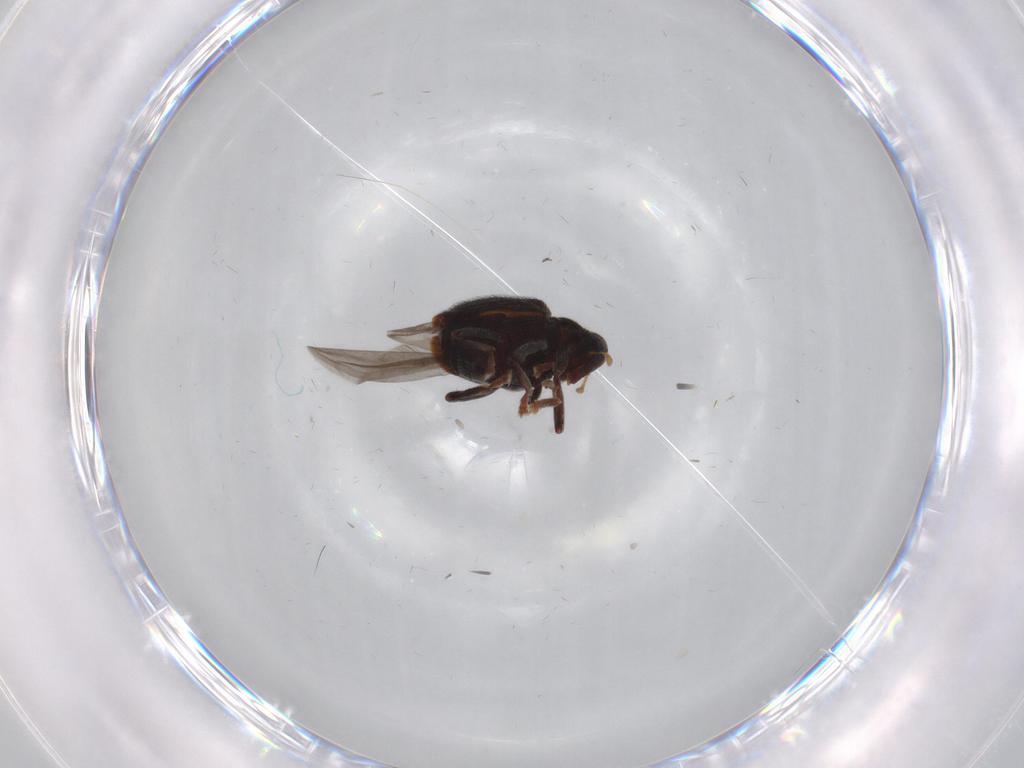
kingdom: Animalia
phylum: Arthropoda
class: Insecta
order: Coleoptera
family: Curculionidae
